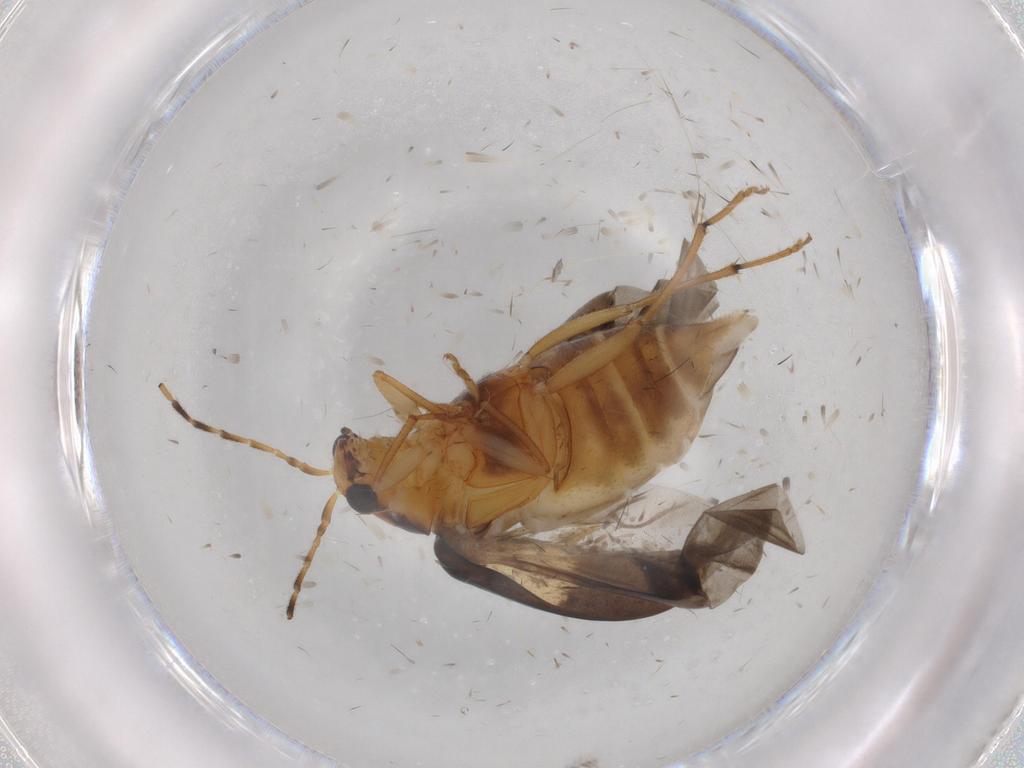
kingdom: Animalia
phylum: Arthropoda
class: Insecta
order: Coleoptera
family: Chrysomelidae
